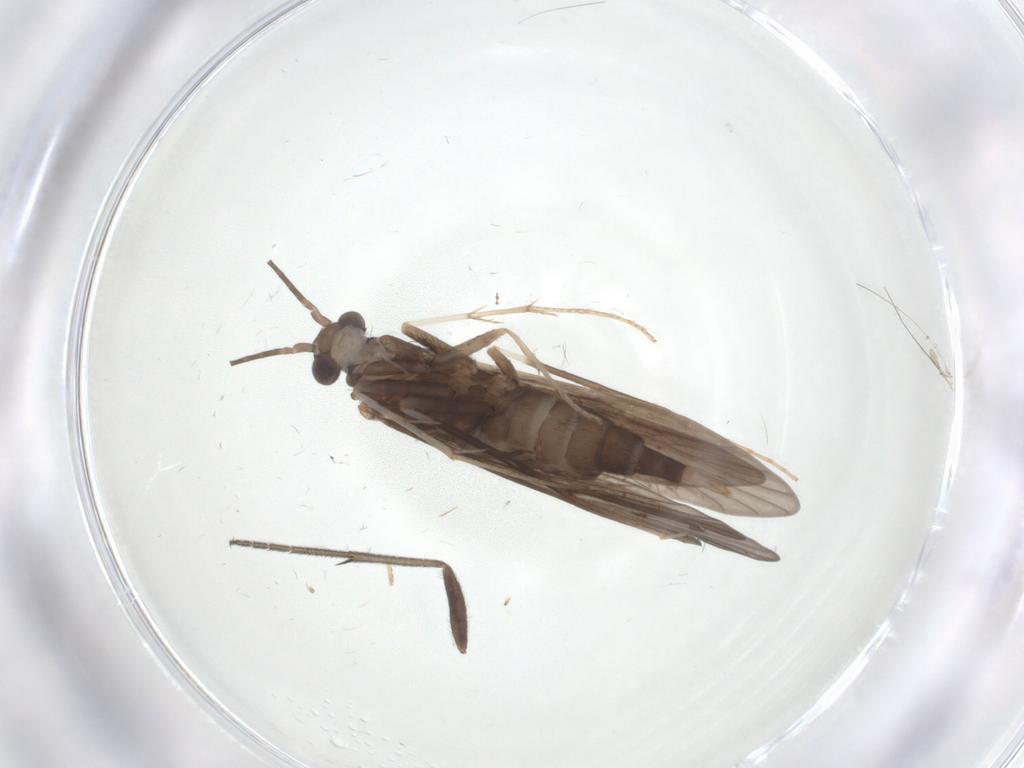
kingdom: Animalia
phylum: Arthropoda
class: Insecta
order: Trichoptera
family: Xiphocentronidae
